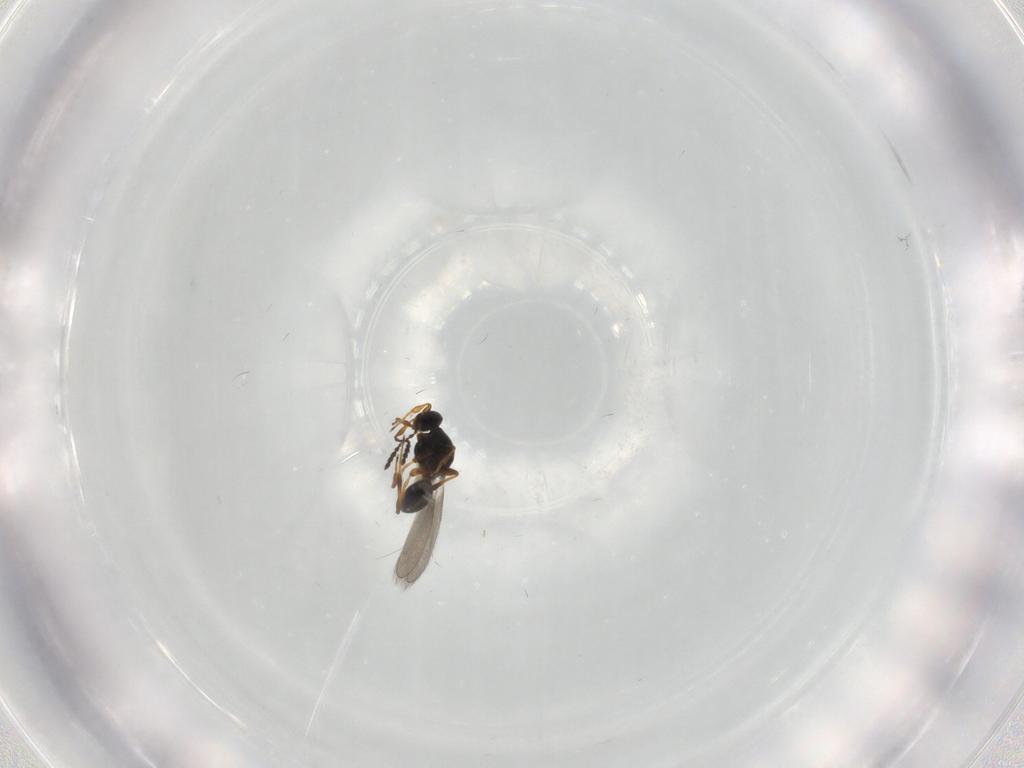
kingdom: Animalia
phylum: Arthropoda
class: Insecta
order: Hymenoptera
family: Platygastridae
